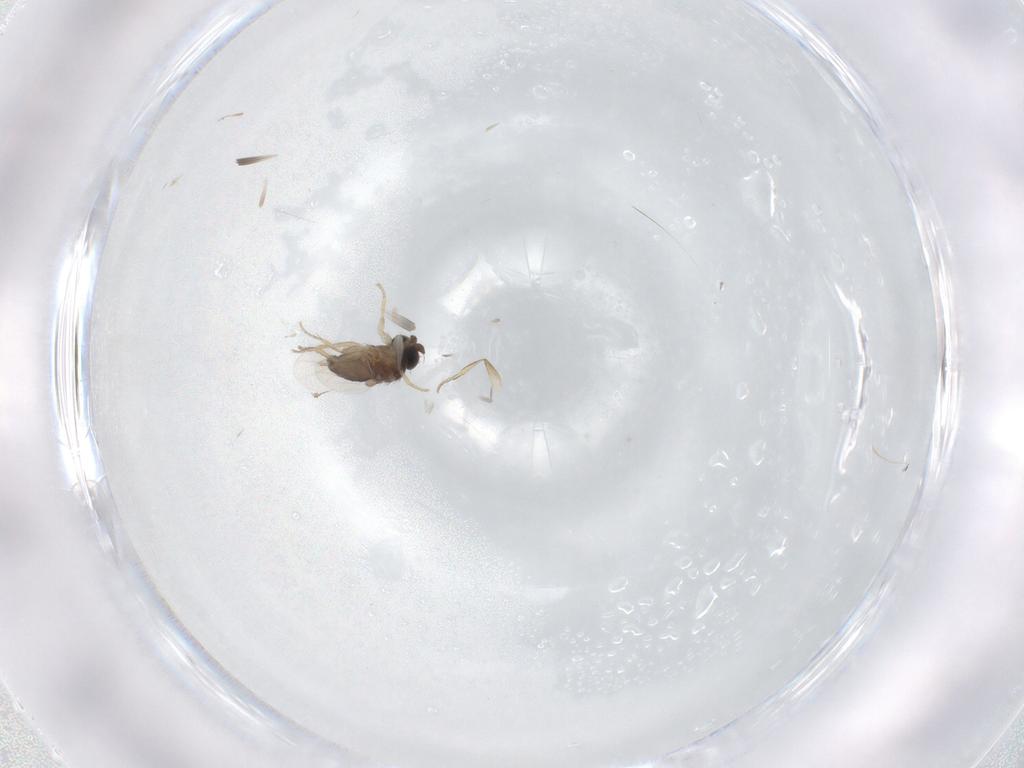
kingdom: Animalia
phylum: Arthropoda
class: Insecta
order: Diptera
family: Phoridae
